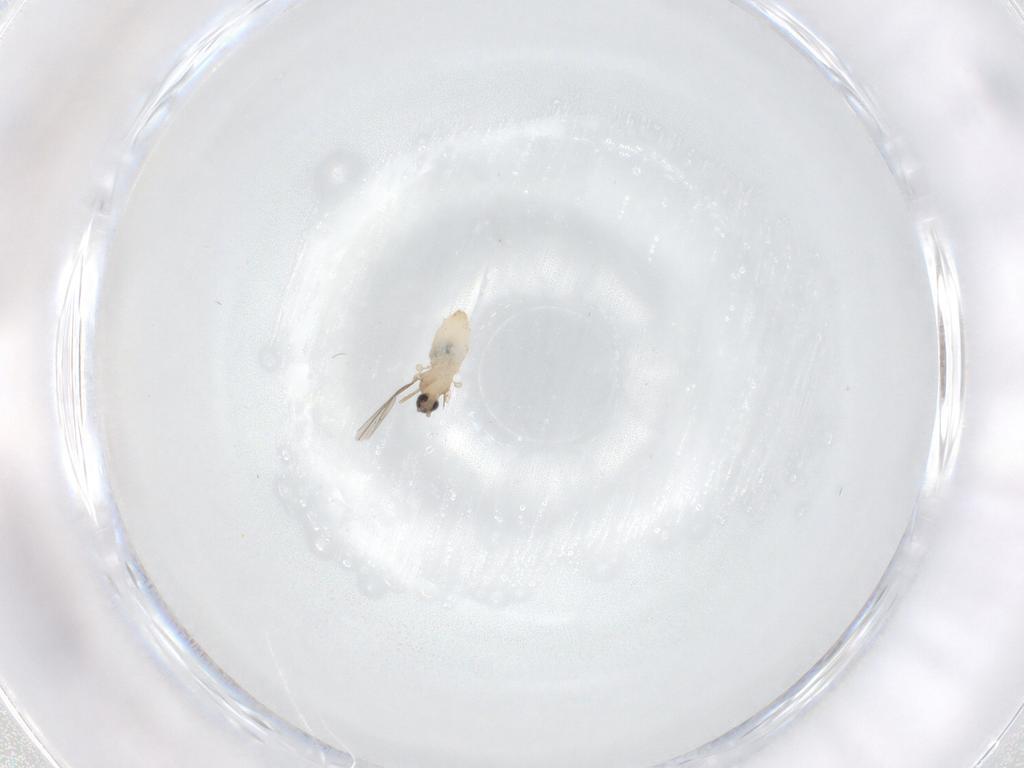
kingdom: Animalia
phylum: Arthropoda
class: Insecta
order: Diptera
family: Cecidomyiidae
